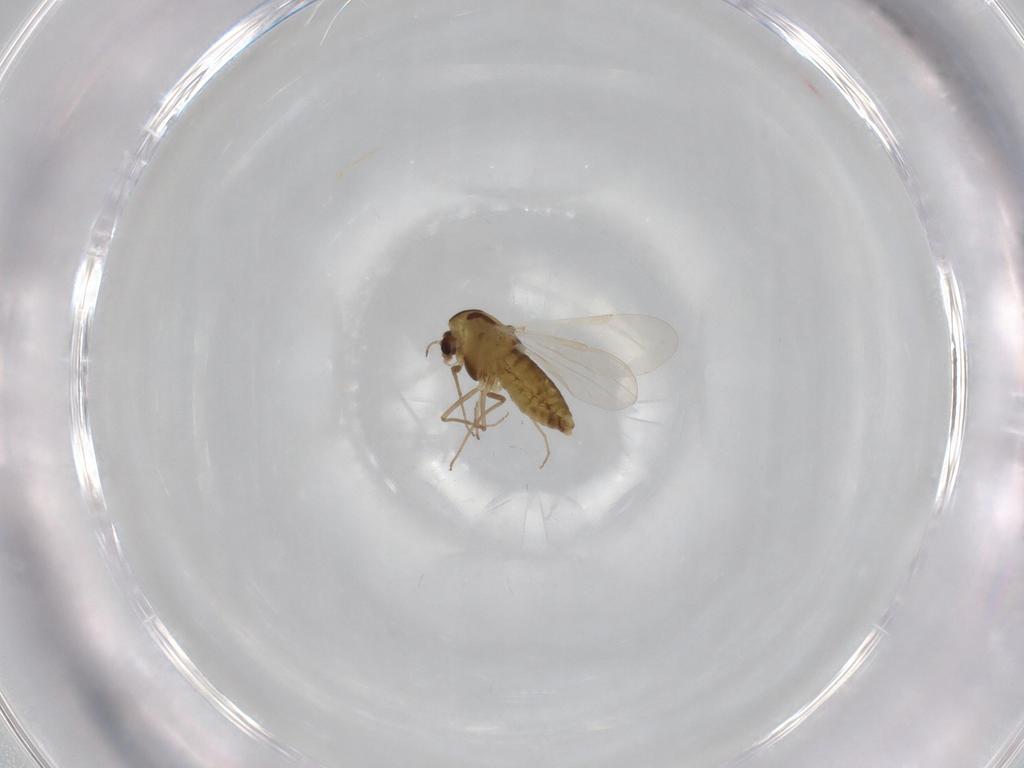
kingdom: Animalia
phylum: Arthropoda
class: Insecta
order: Diptera
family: Chironomidae
